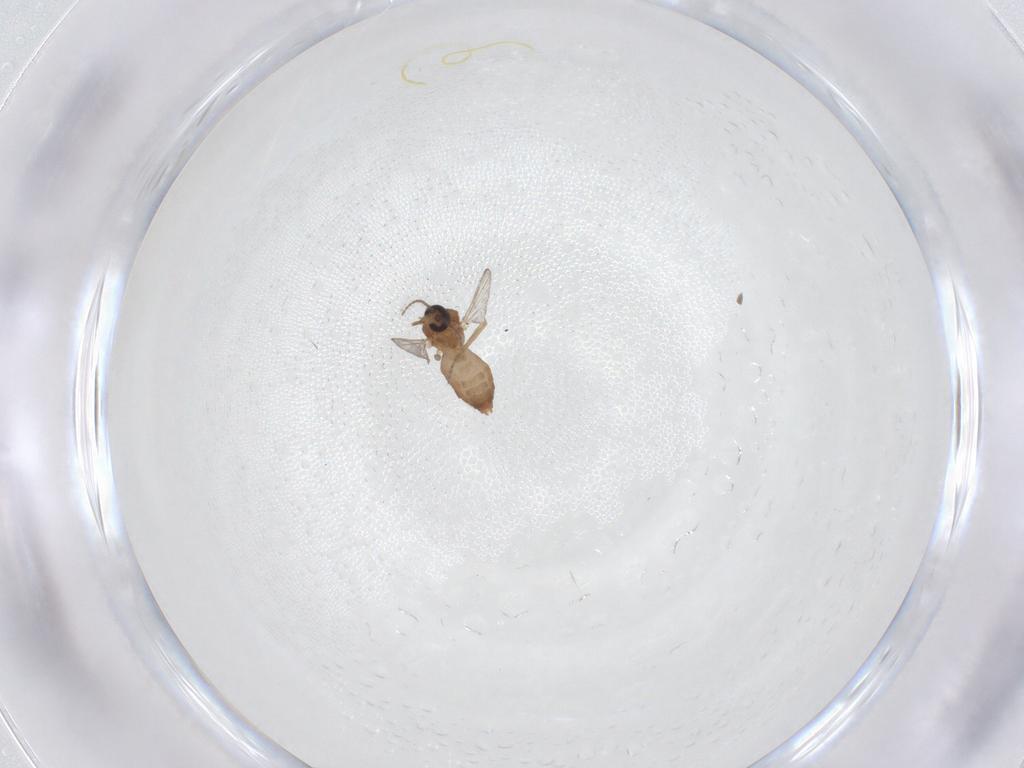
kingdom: Animalia
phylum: Arthropoda
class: Insecta
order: Diptera
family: Ceratopogonidae
